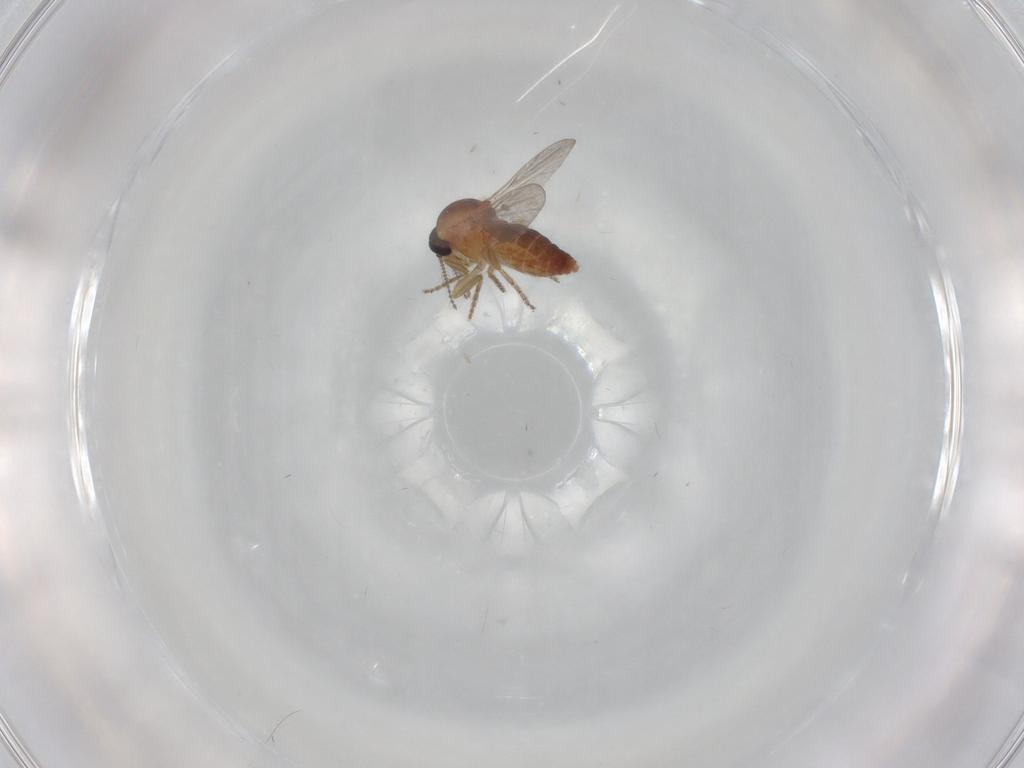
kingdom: Animalia
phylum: Arthropoda
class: Insecta
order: Diptera
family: Ceratopogonidae
